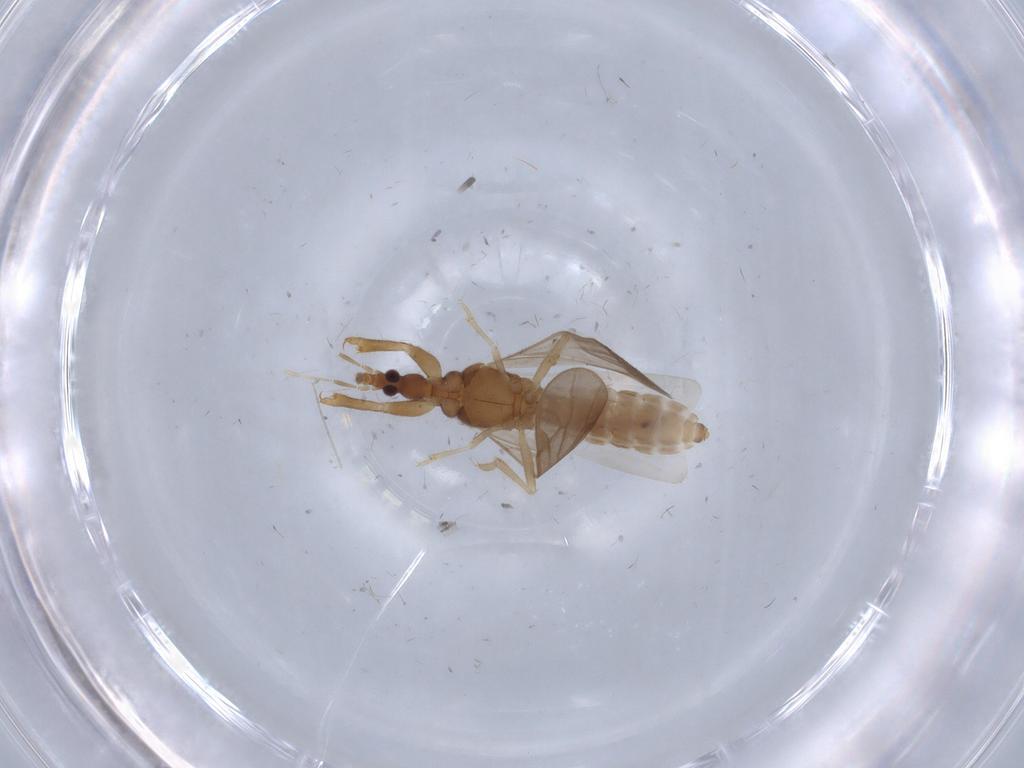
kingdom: Animalia
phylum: Arthropoda
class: Insecta
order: Hemiptera
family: Enicocephalidae
